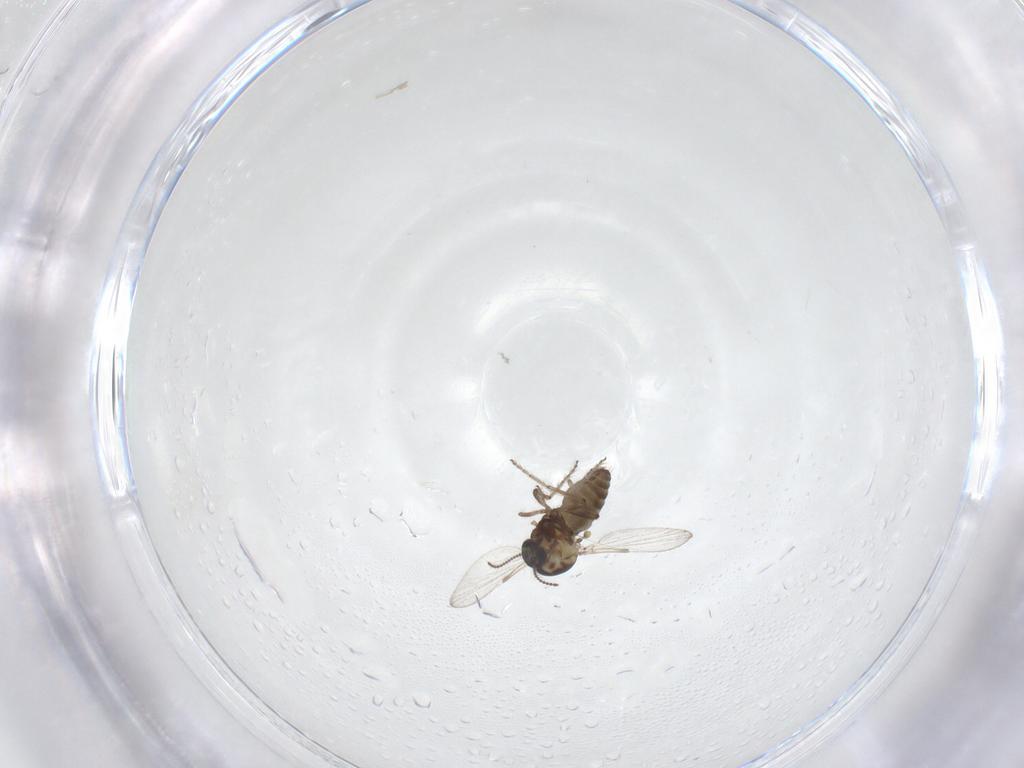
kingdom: Animalia
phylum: Arthropoda
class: Insecta
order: Diptera
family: Ceratopogonidae
